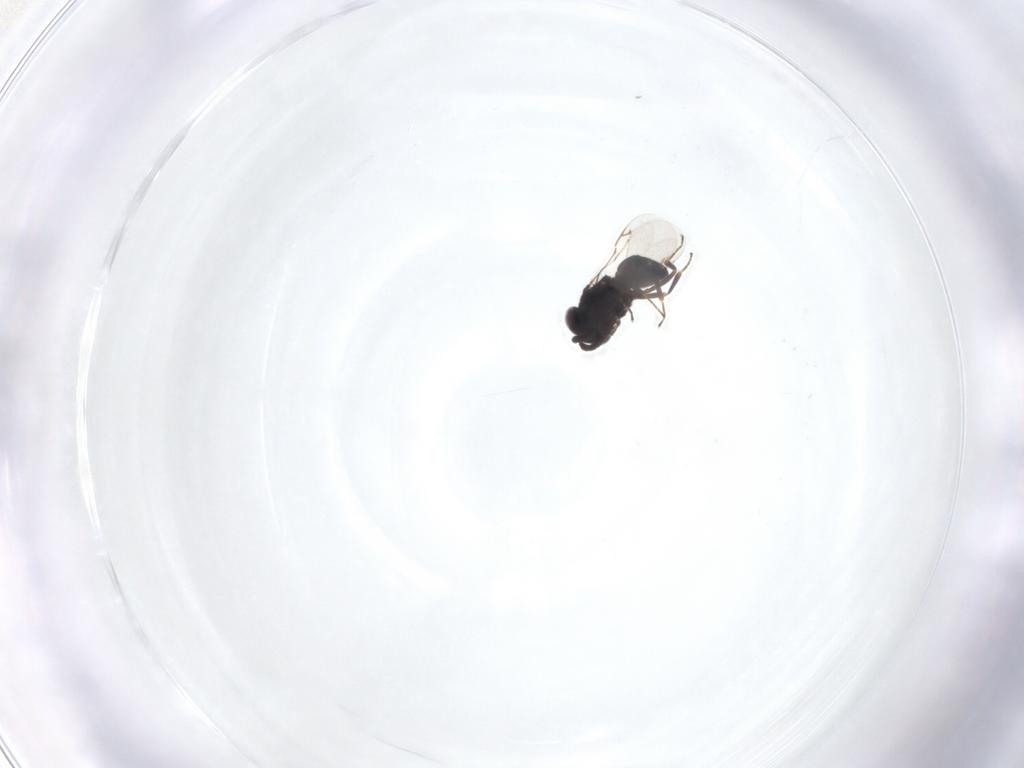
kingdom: Animalia
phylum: Arthropoda
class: Insecta
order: Hymenoptera
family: Eunotidae
